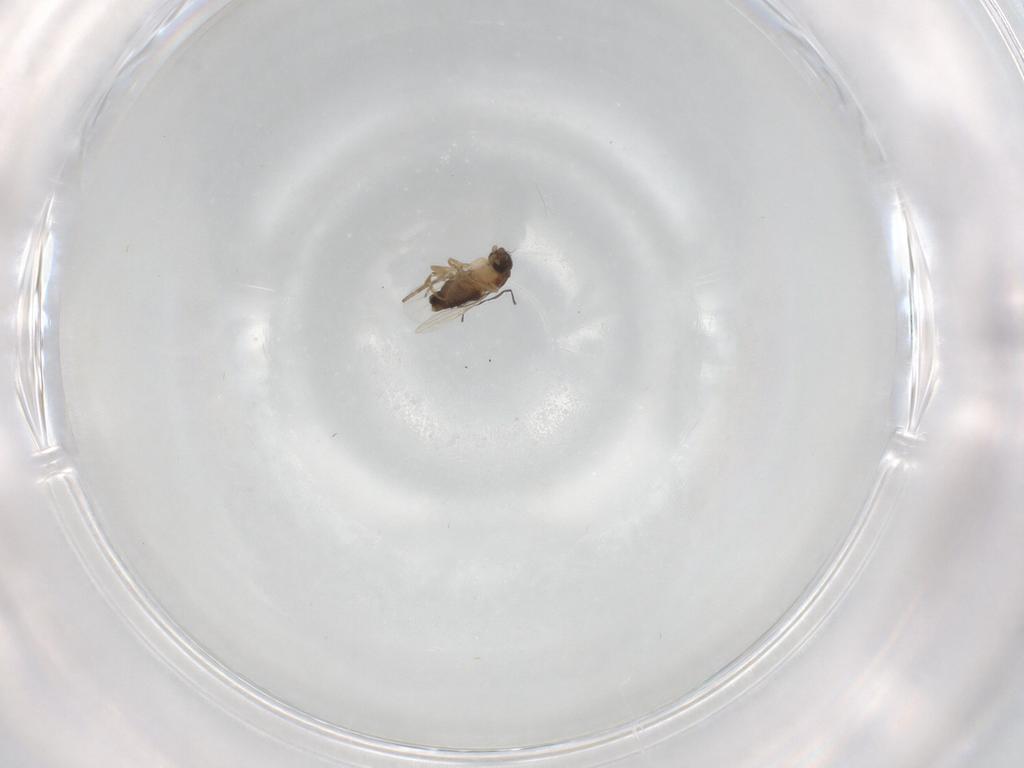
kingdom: Animalia
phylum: Arthropoda
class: Insecta
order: Diptera
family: Phoridae
